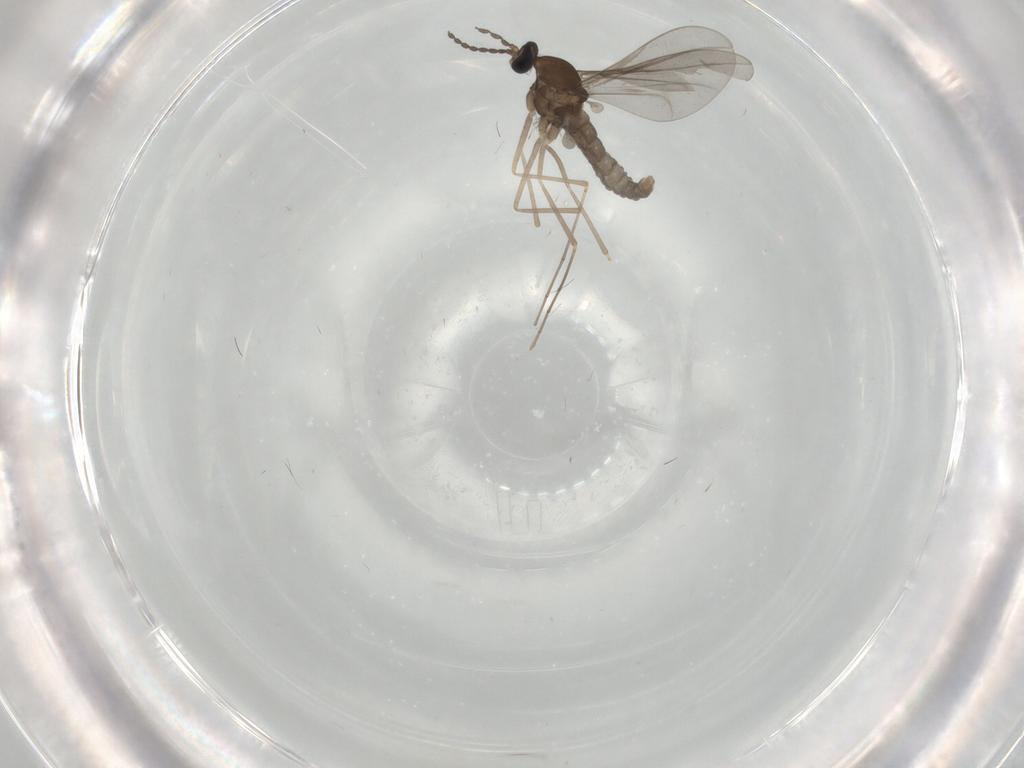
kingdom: Animalia
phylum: Arthropoda
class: Insecta
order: Diptera
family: Cecidomyiidae
